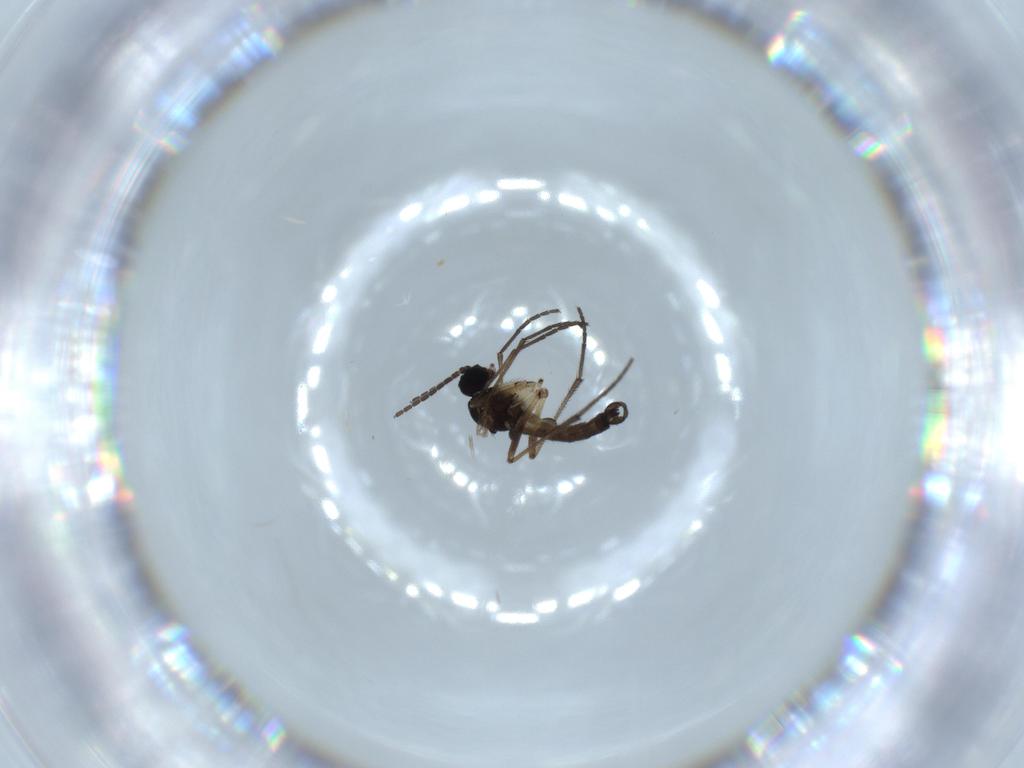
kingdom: Animalia
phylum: Arthropoda
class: Insecta
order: Diptera
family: Sciaridae
